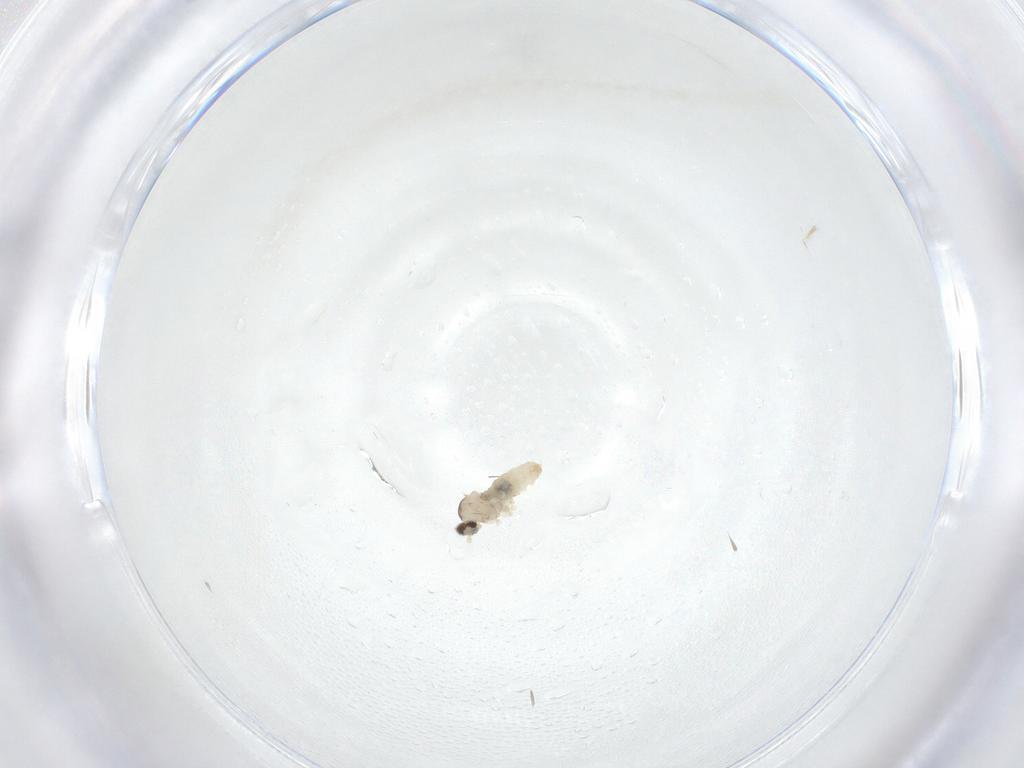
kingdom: Animalia
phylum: Arthropoda
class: Insecta
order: Diptera
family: Cecidomyiidae
